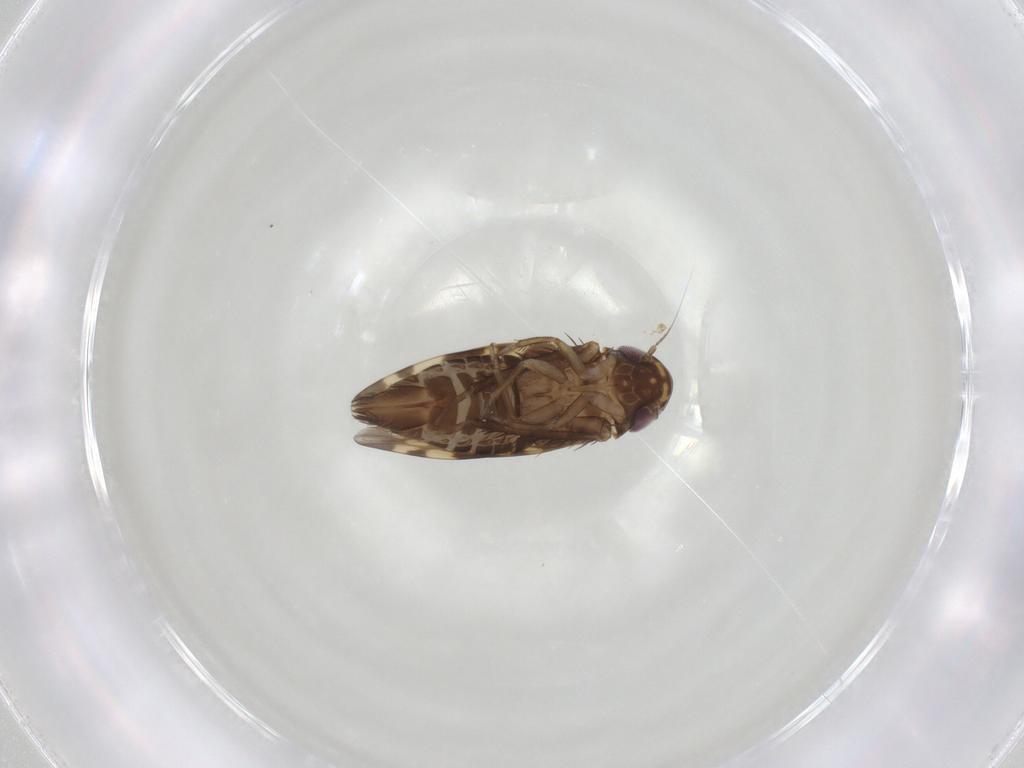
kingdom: Animalia
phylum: Arthropoda
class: Insecta
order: Hemiptera
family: Cicadellidae
